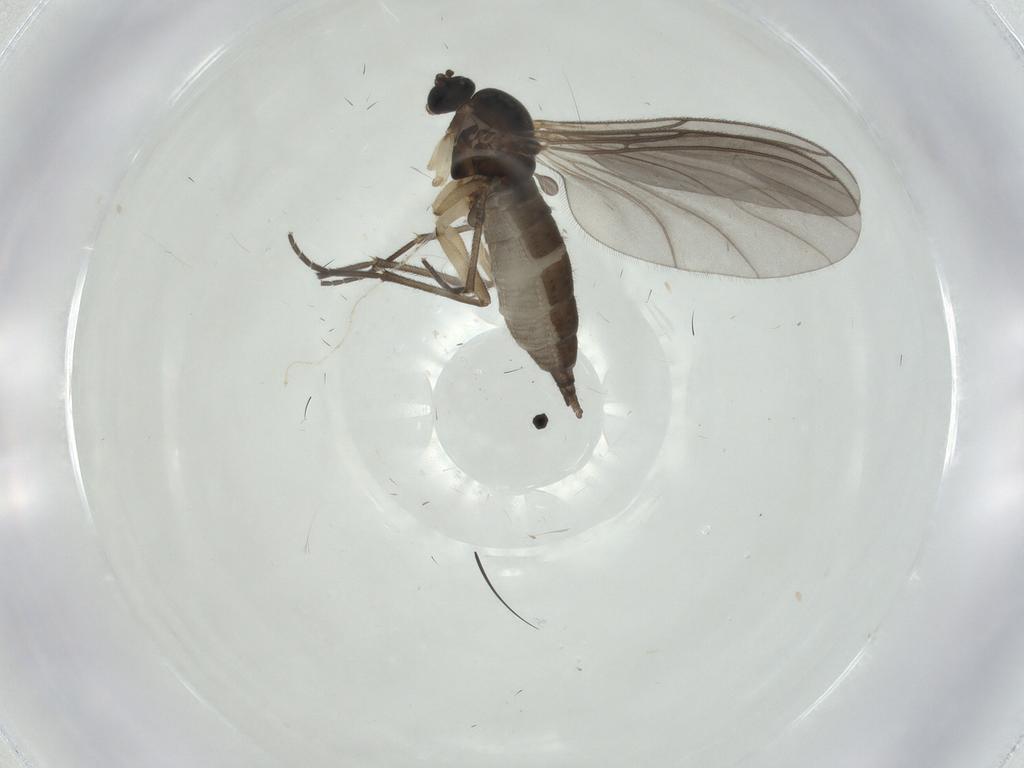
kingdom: Animalia
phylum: Arthropoda
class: Insecta
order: Diptera
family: Sciaridae
